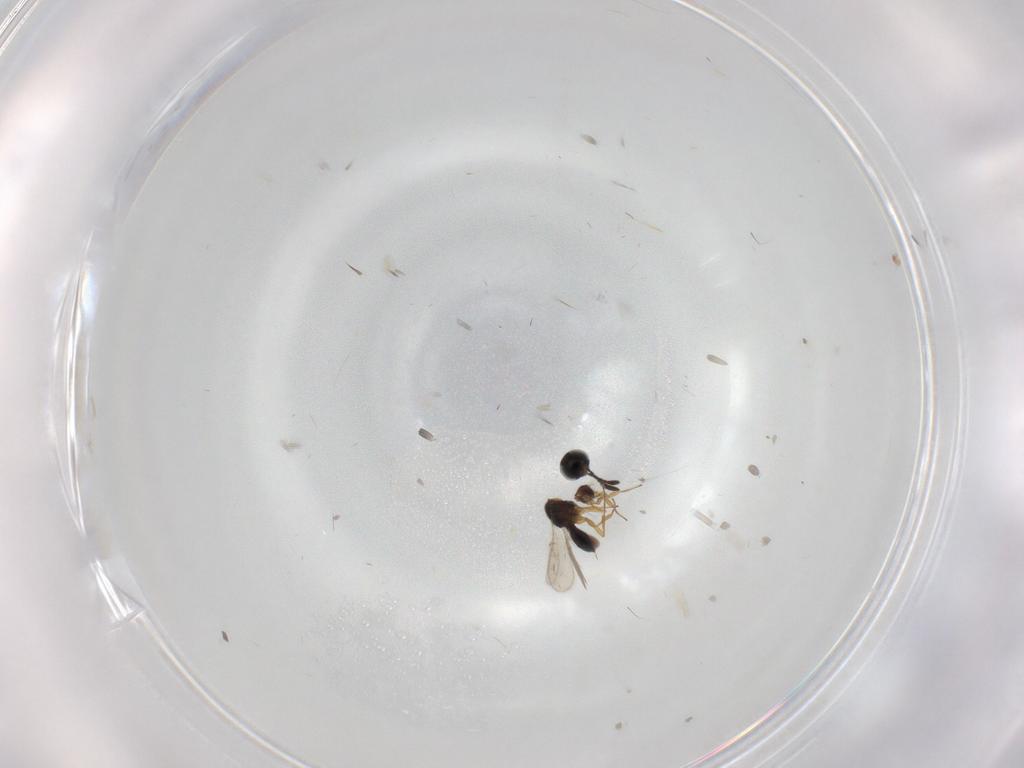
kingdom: Animalia
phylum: Arthropoda
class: Insecta
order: Hymenoptera
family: Scelionidae
